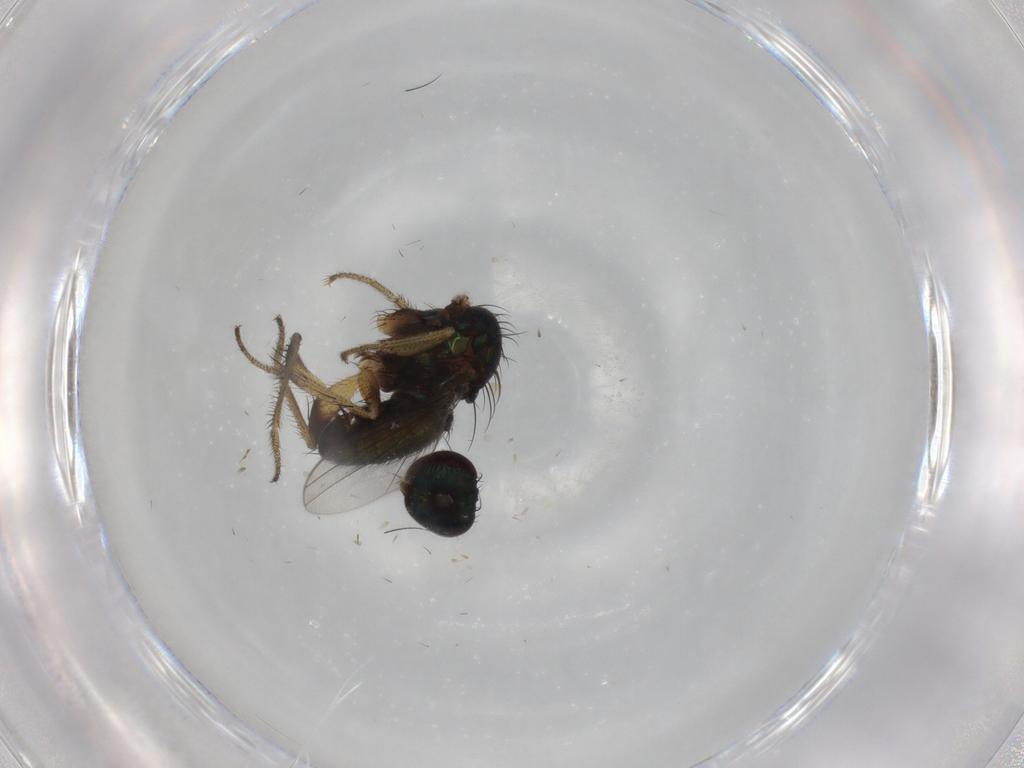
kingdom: Animalia
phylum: Arthropoda
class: Insecta
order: Diptera
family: Dolichopodidae
